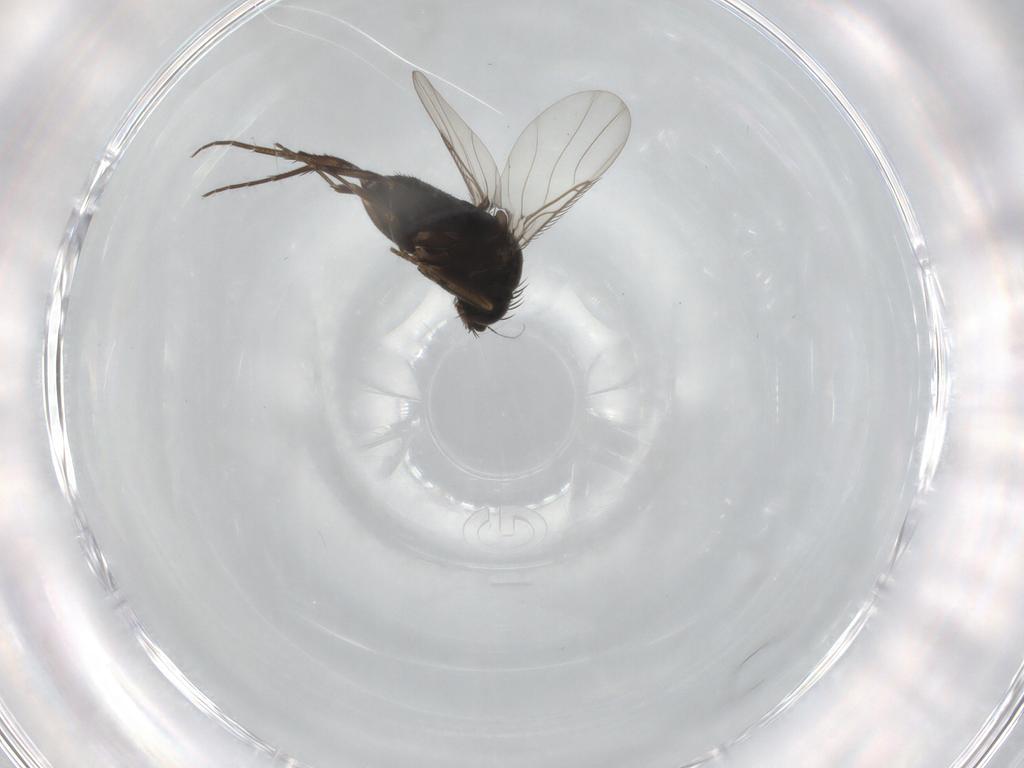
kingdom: Animalia
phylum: Arthropoda
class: Insecta
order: Diptera
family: Phoridae
